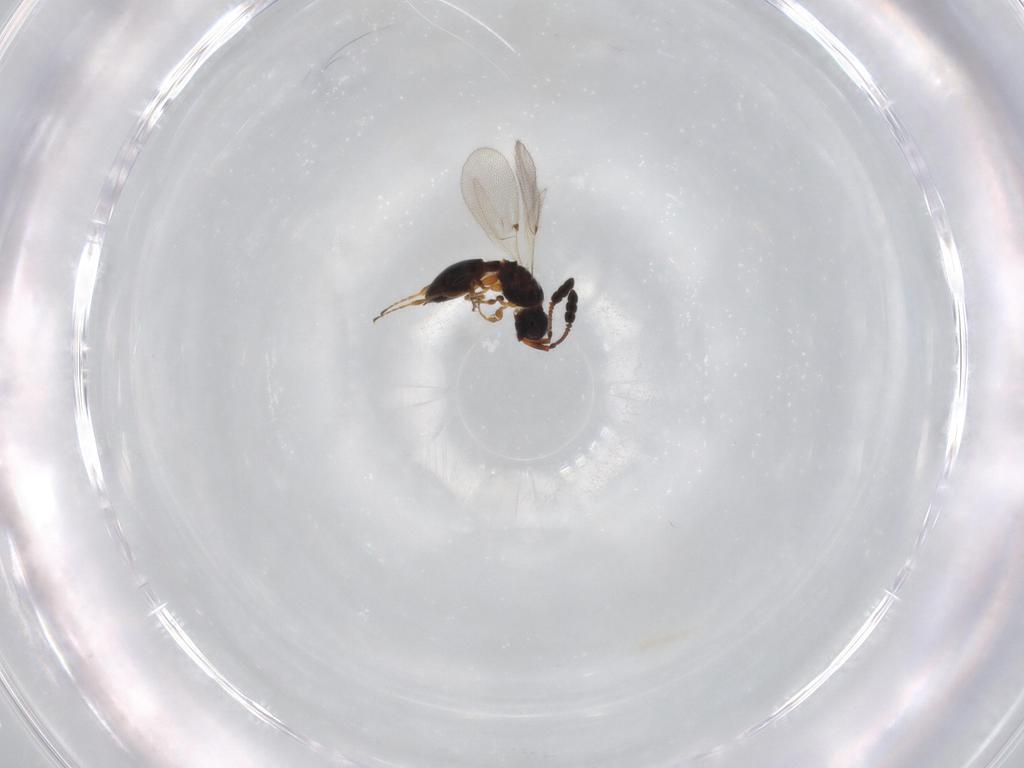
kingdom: Animalia
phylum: Arthropoda
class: Insecta
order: Hymenoptera
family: Diapriidae
